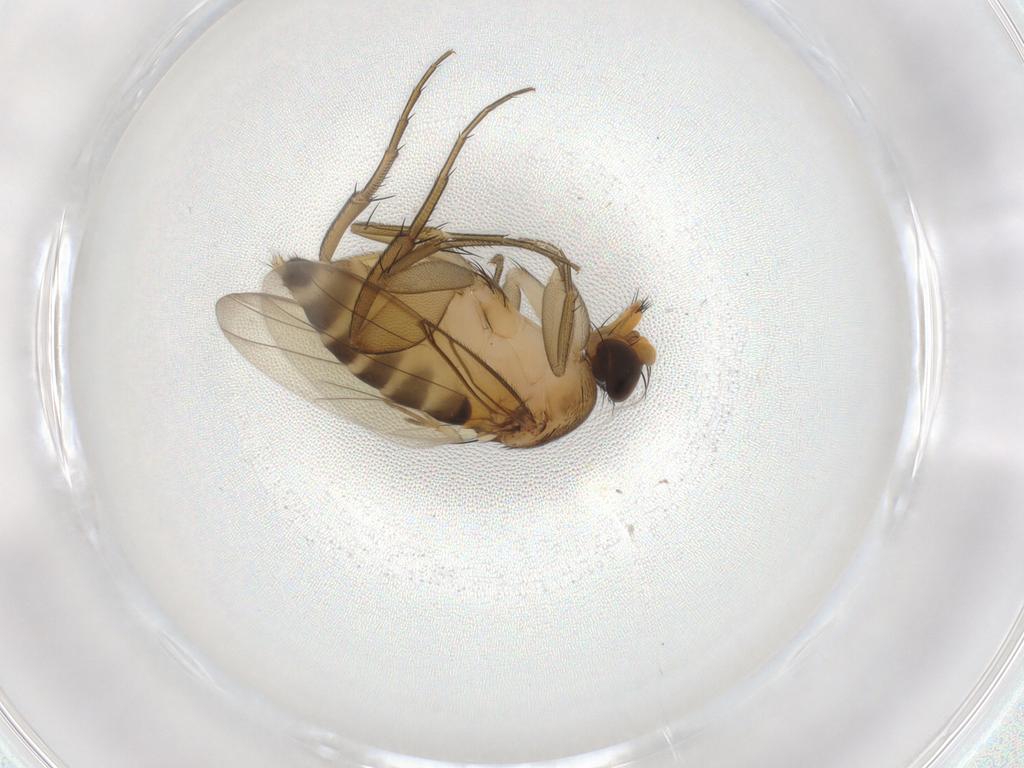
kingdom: Animalia
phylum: Arthropoda
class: Insecta
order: Diptera
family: Phoridae
